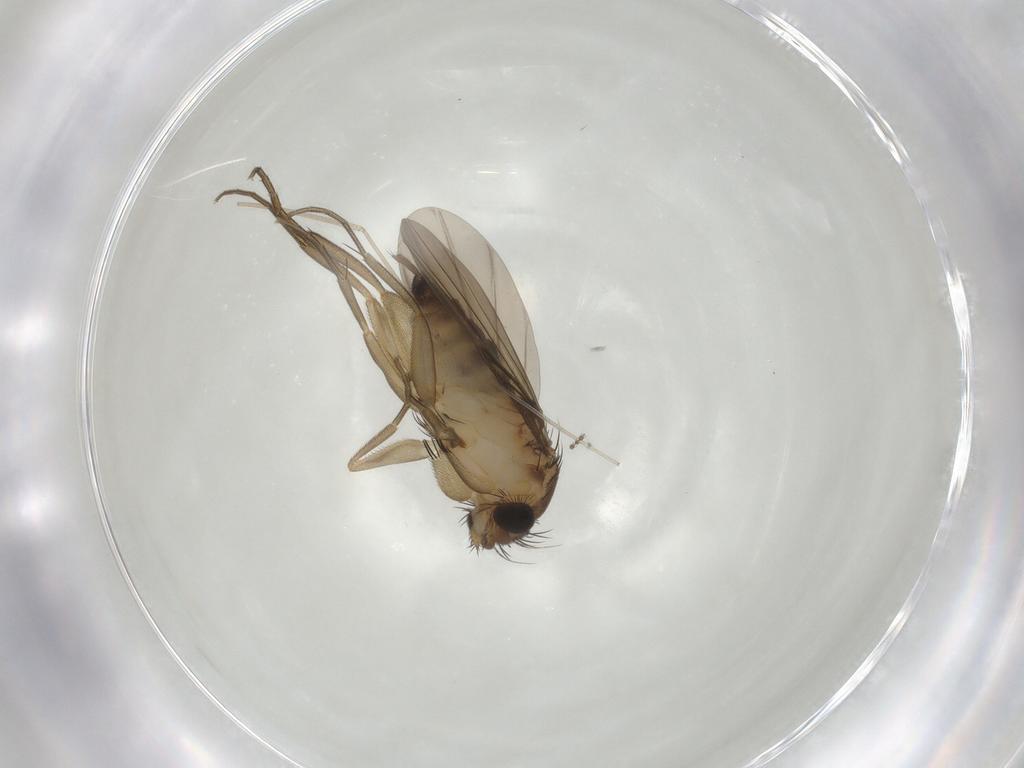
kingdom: Animalia
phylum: Arthropoda
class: Insecta
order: Diptera
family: Phoridae
